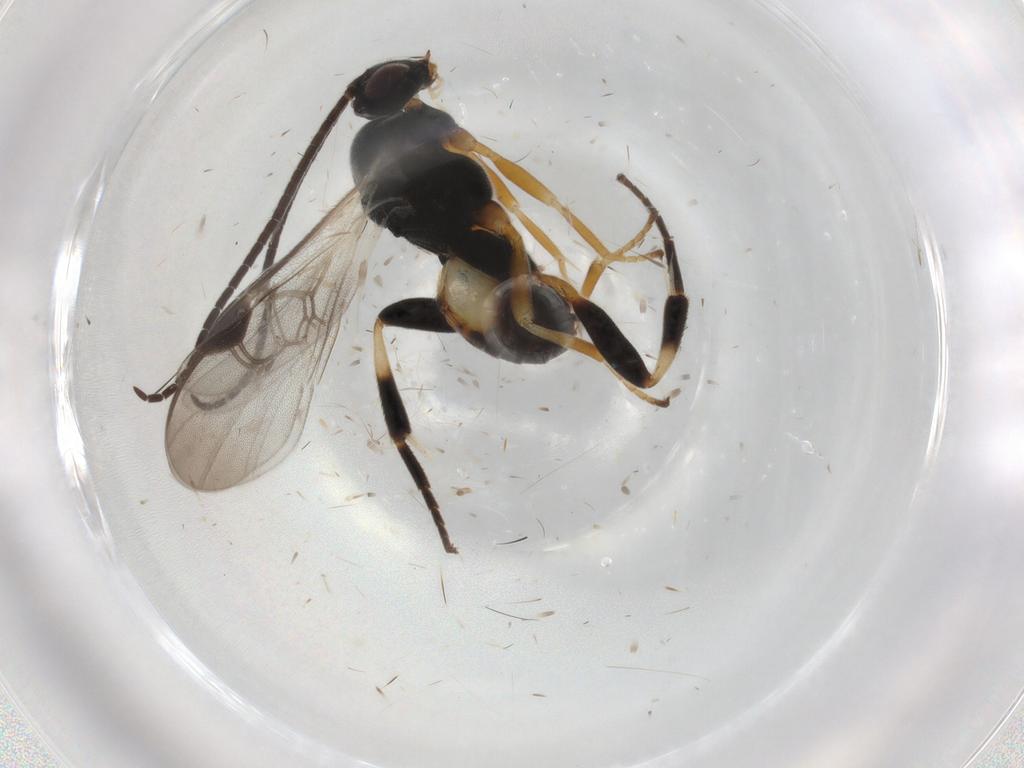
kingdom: Animalia
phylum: Arthropoda
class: Insecta
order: Hymenoptera
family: Braconidae
